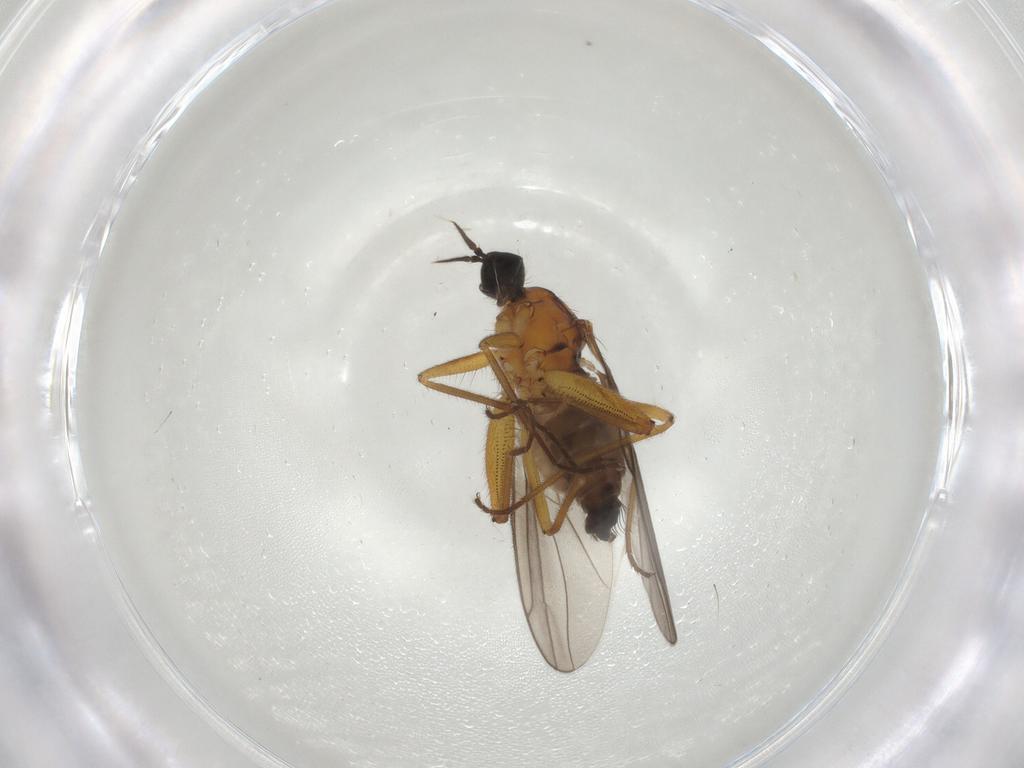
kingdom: Animalia
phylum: Arthropoda
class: Insecta
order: Diptera
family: Hybotidae
